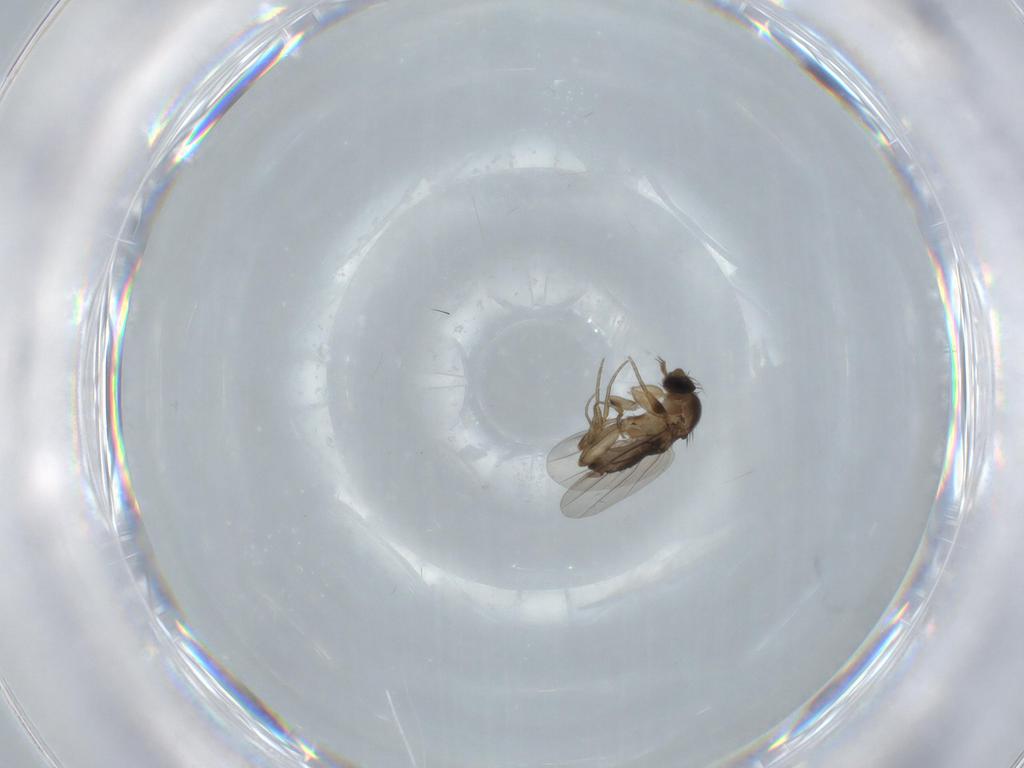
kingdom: Animalia
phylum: Arthropoda
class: Insecta
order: Diptera
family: Phoridae
